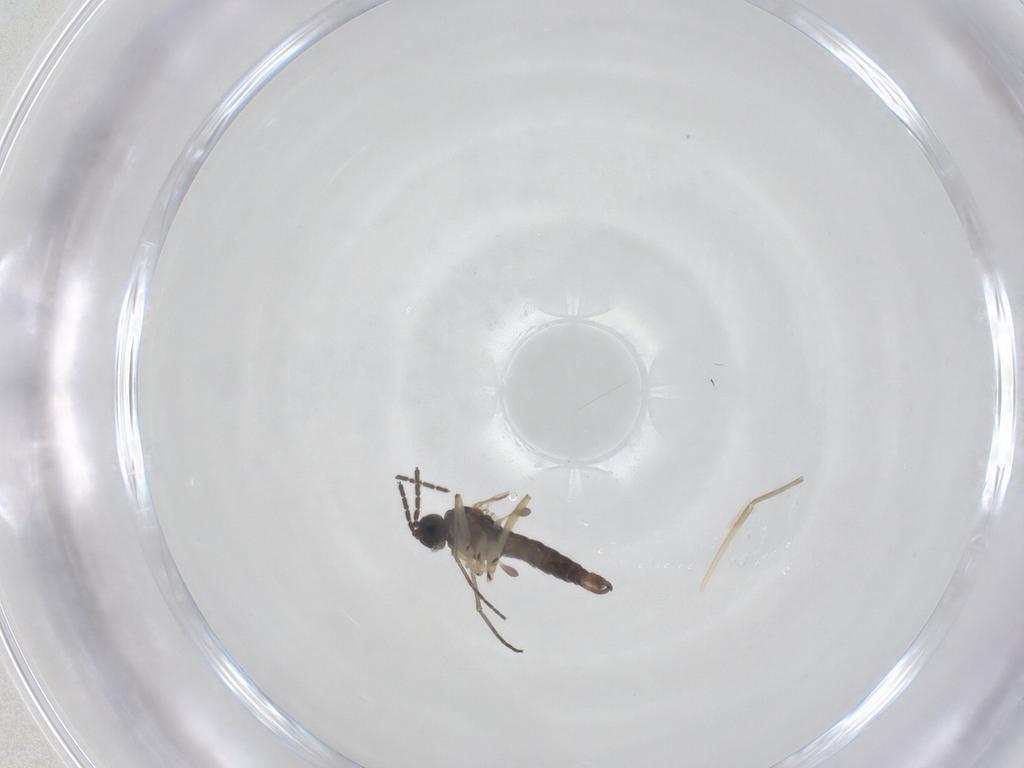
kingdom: Animalia
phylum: Arthropoda
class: Insecta
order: Diptera
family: Sciaridae
